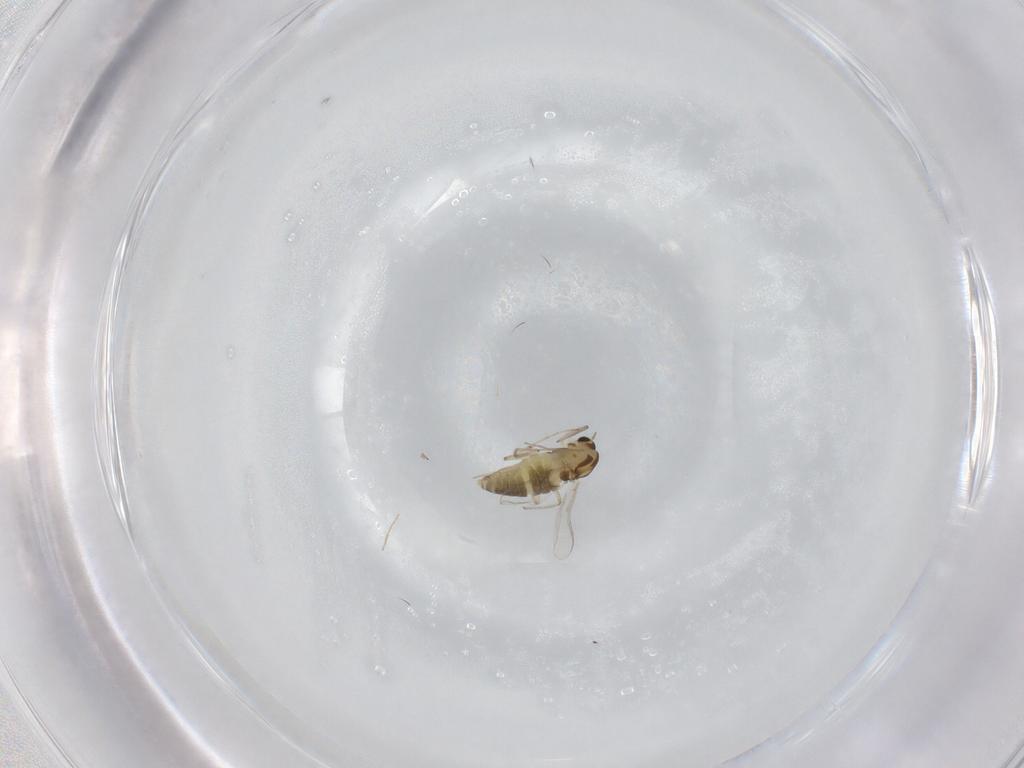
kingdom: Animalia
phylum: Arthropoda
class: Insecta
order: Diptera
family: Chironomidae
